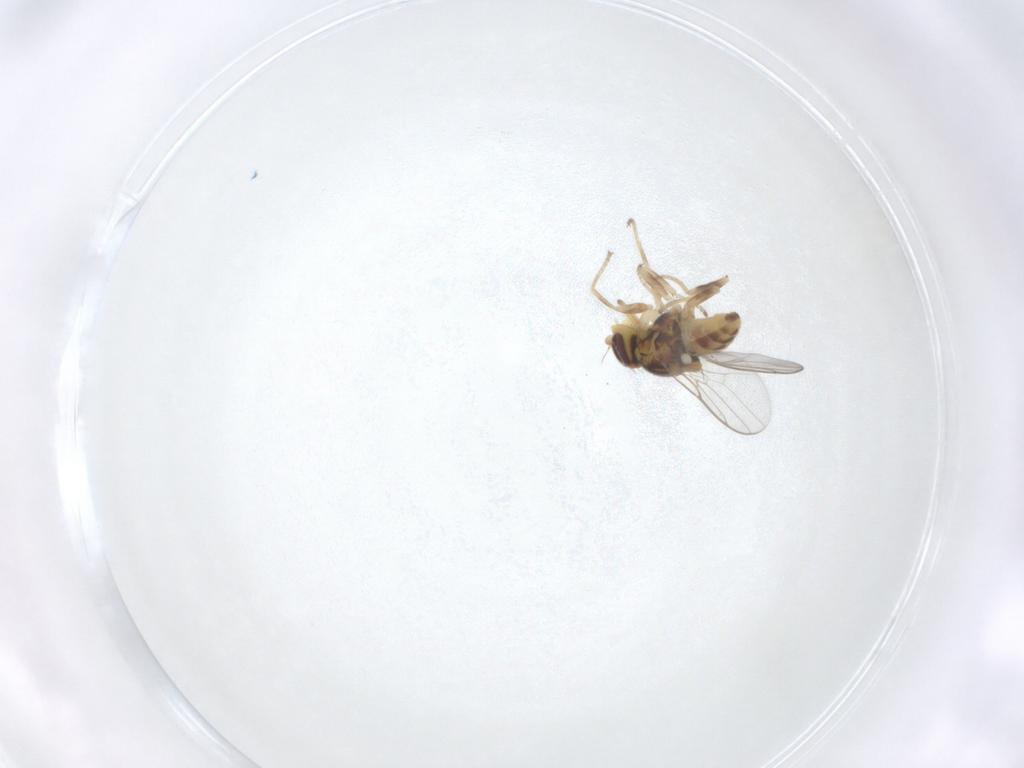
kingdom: Animalia
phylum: Arthropoda
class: Insecta
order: Diptera
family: Chloropidae
